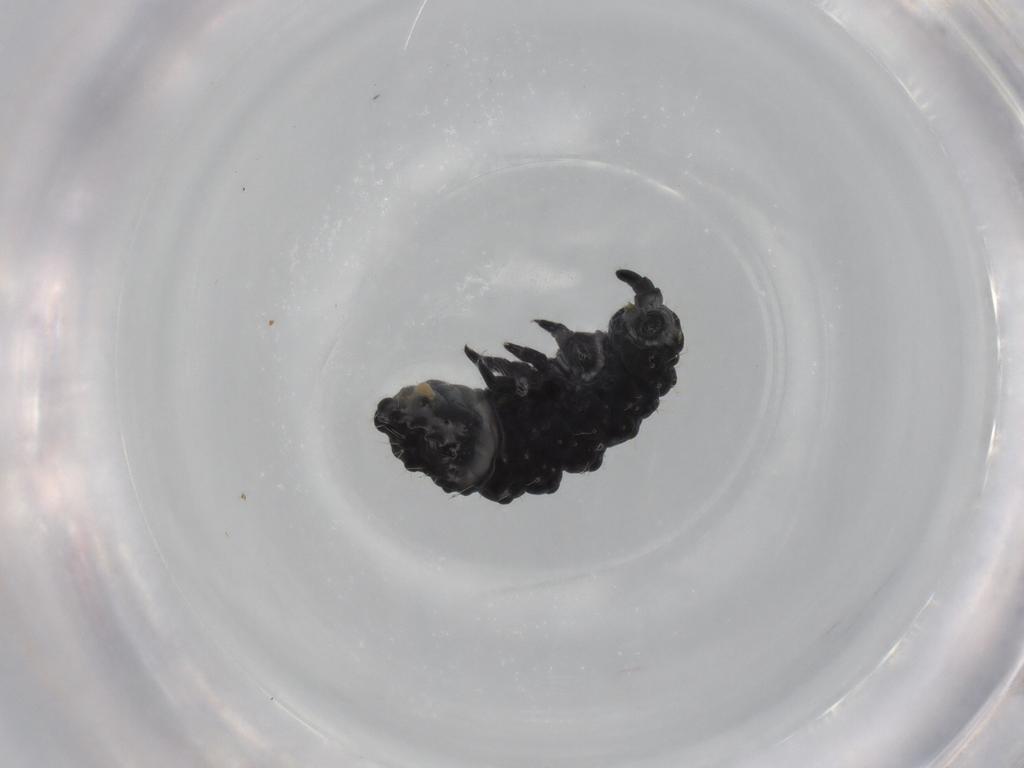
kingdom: Animalia
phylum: Arthropoda
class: Collembola
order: Poduromorpha
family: Neanuridae
